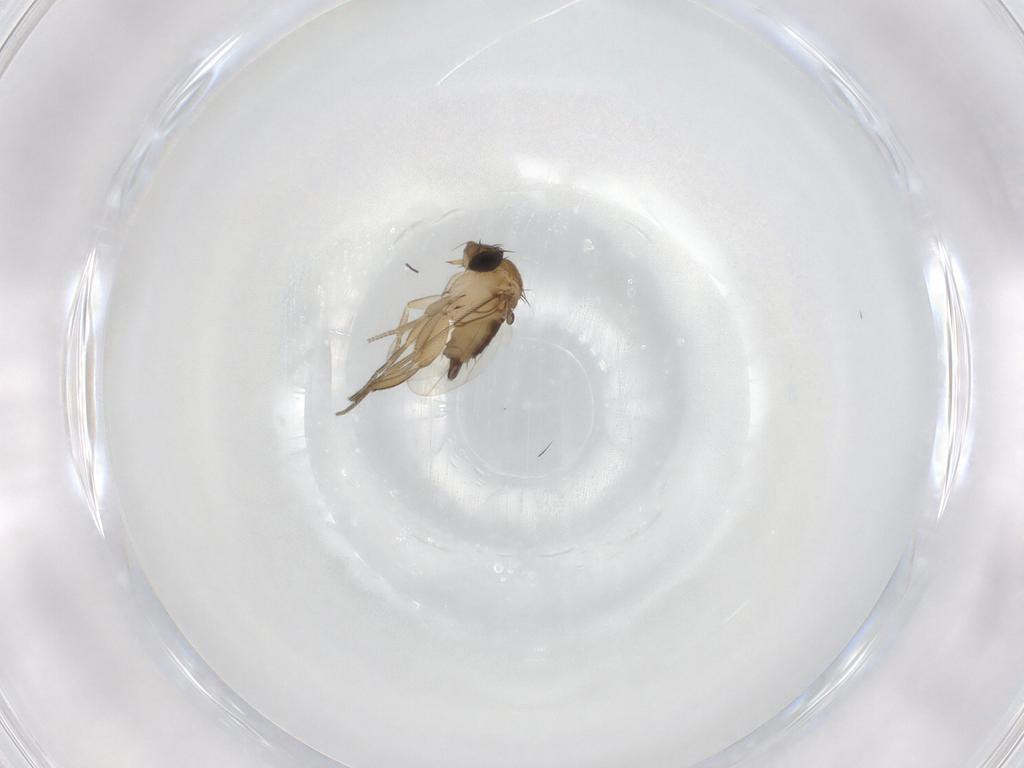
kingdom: Animalia
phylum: Arthropoda
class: Insecta
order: Diptera
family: Phoridae
